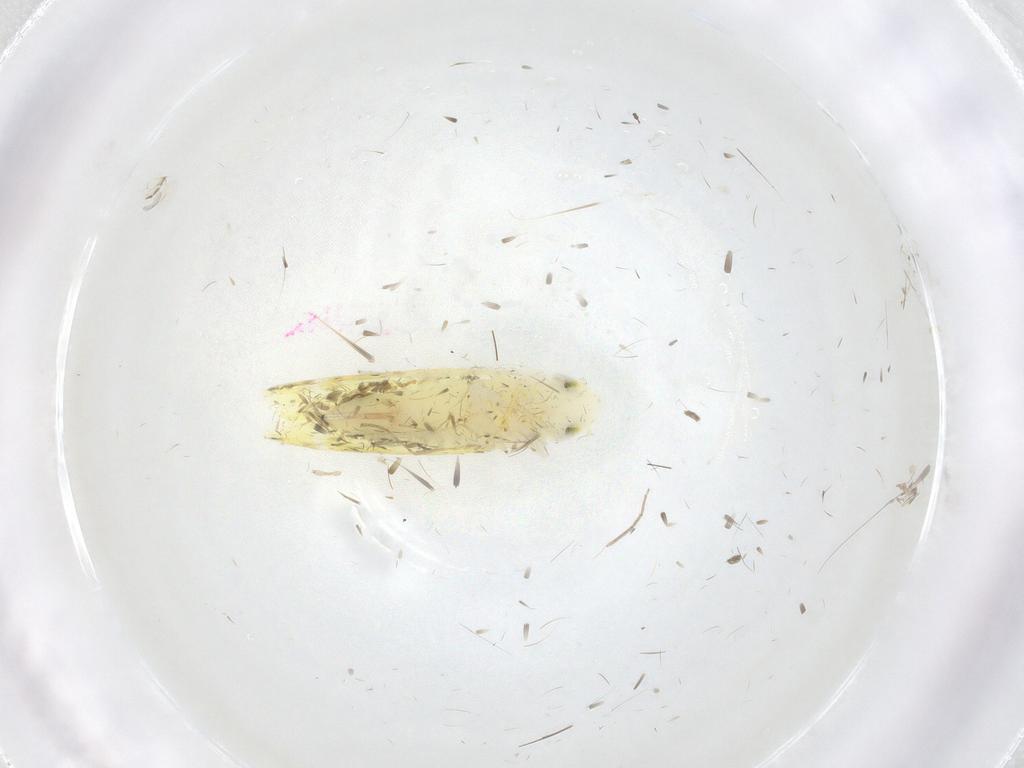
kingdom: Animalia
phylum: Arthropoda
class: Insecta
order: Hemiptera
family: Cicadellidae
